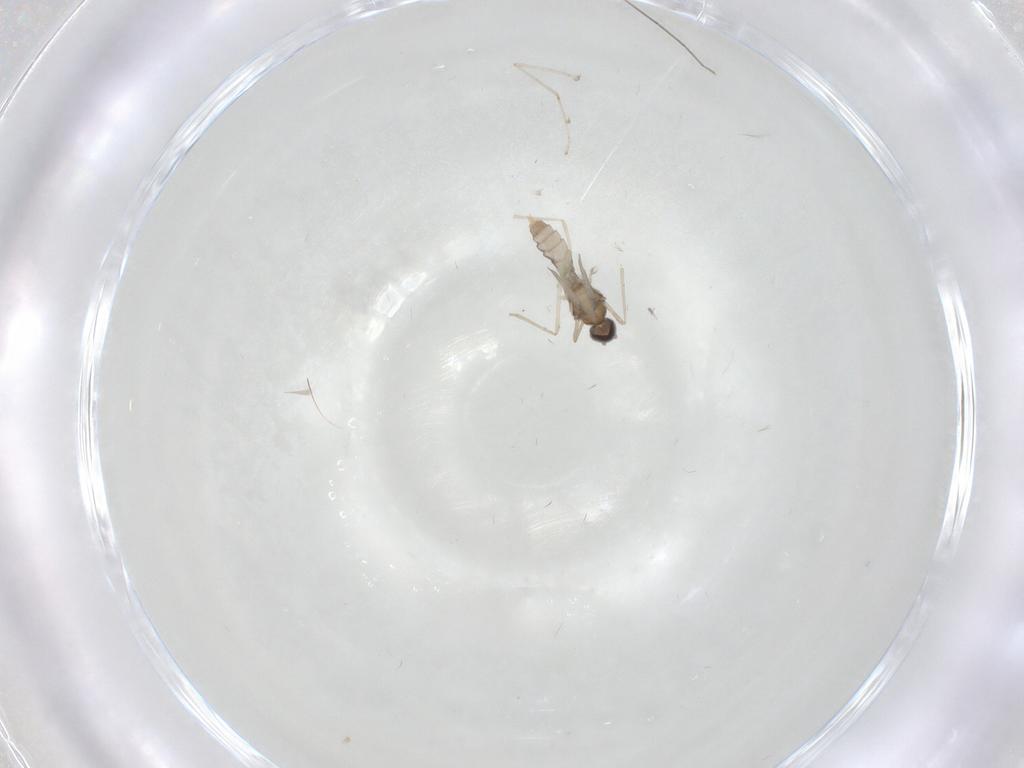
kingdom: Animalia
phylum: Arthropoda
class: Insecta
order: Diptera
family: Cecidomyiidae
